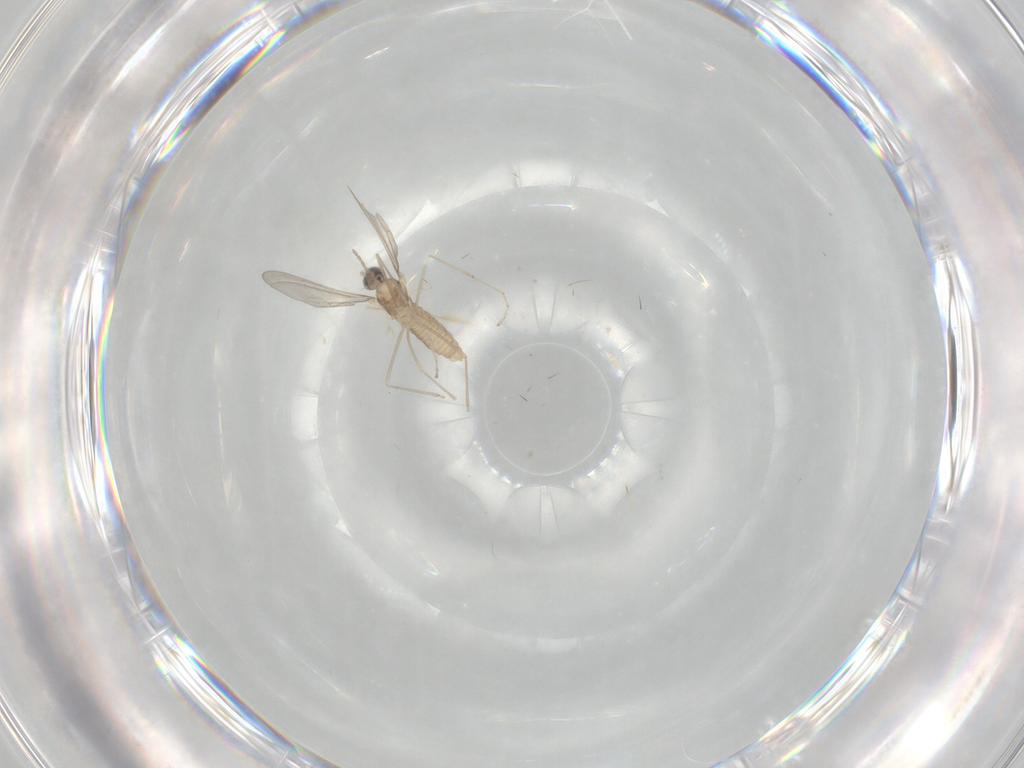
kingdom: Animalia
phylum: Arthropoda
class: Insecta
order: Diptera
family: Cecidomyiidae
